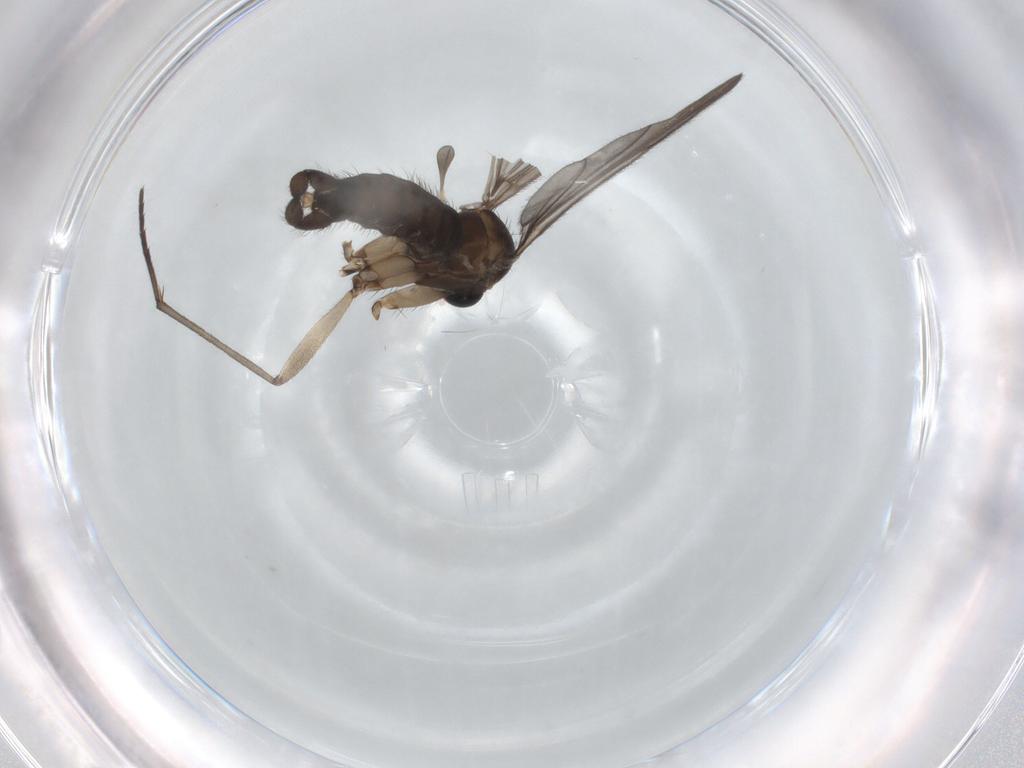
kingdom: Animalia
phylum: Arthropoda
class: Insecta
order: Diptera
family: Sciaridae
